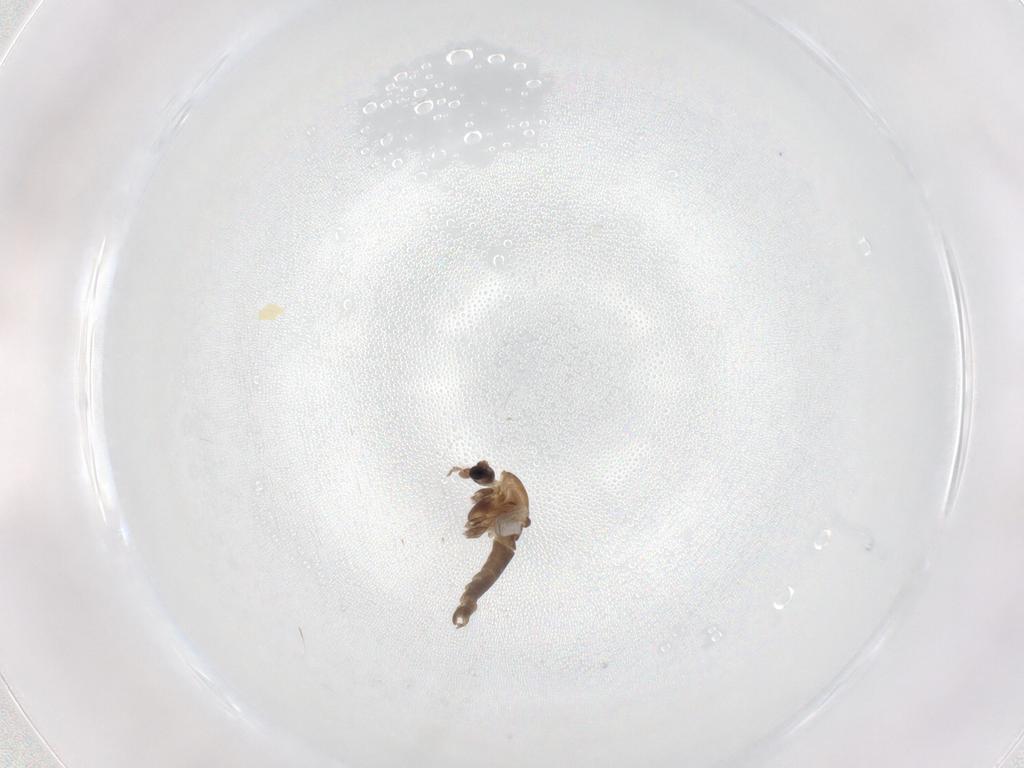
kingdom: Animalia
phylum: Arthropoda
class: Insecta
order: Diptera
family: Chironomidae
